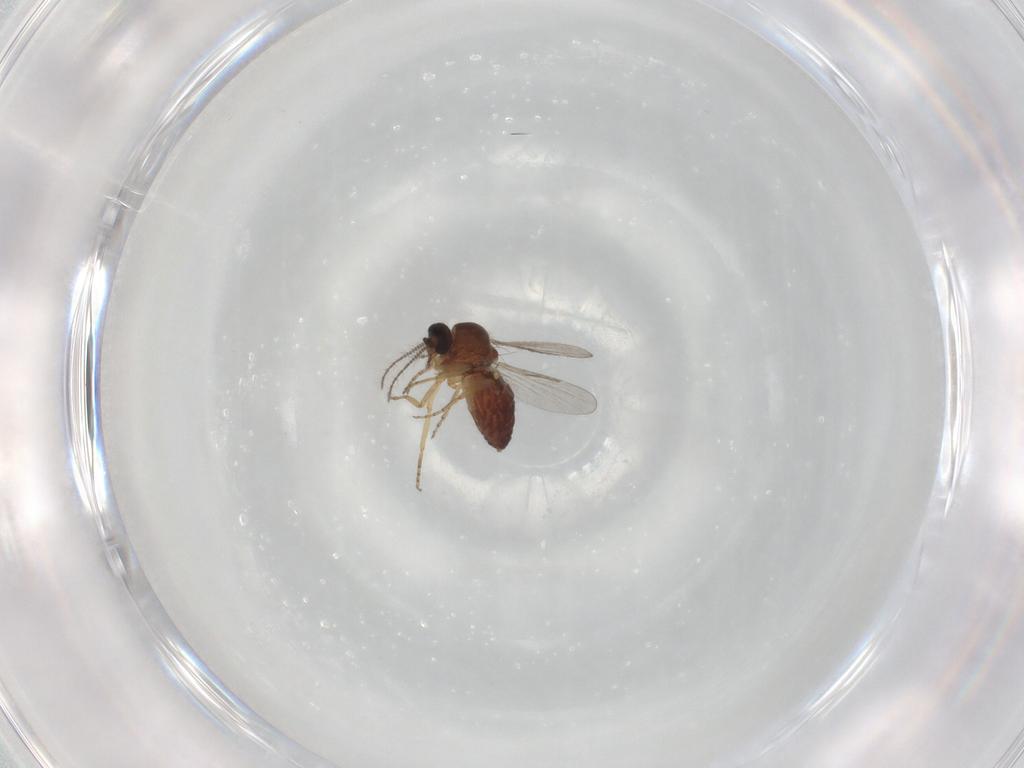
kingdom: Animalia
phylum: Arthropoda
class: Insecta
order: Diptera
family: Ceratopogonidae
